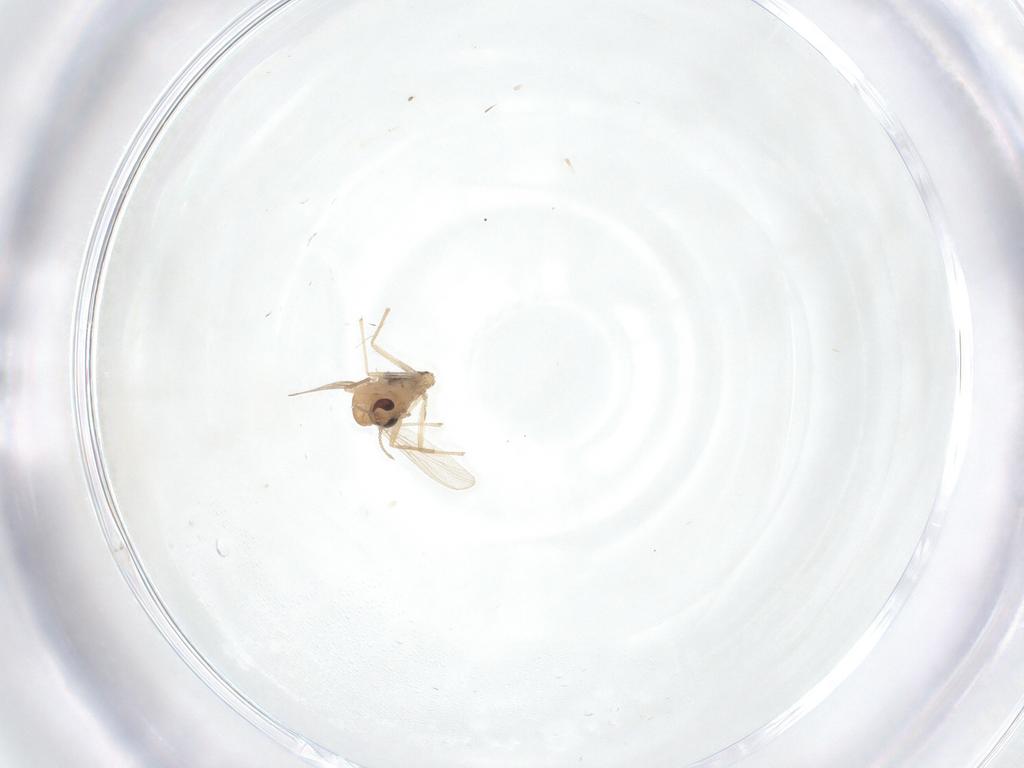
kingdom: Animalia
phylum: Arthropoda
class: Insecta
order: Diptera
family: Chironomidae
